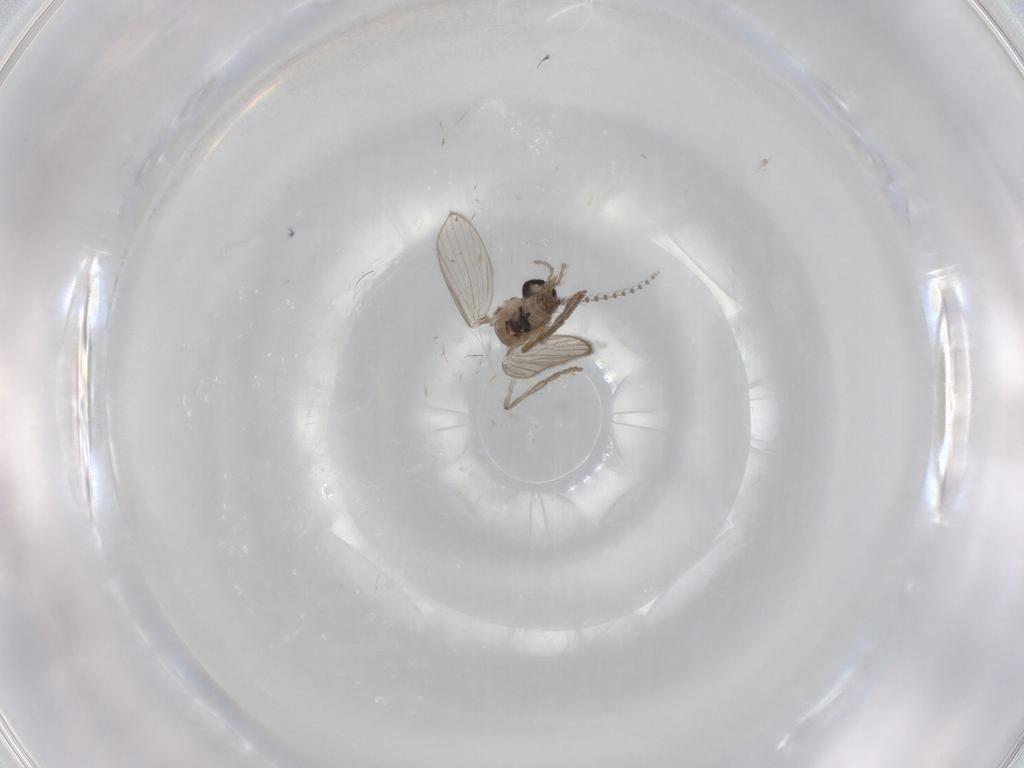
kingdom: Animalia
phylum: Arthropoda
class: Insecta
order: Diptera
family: Psychodidae
